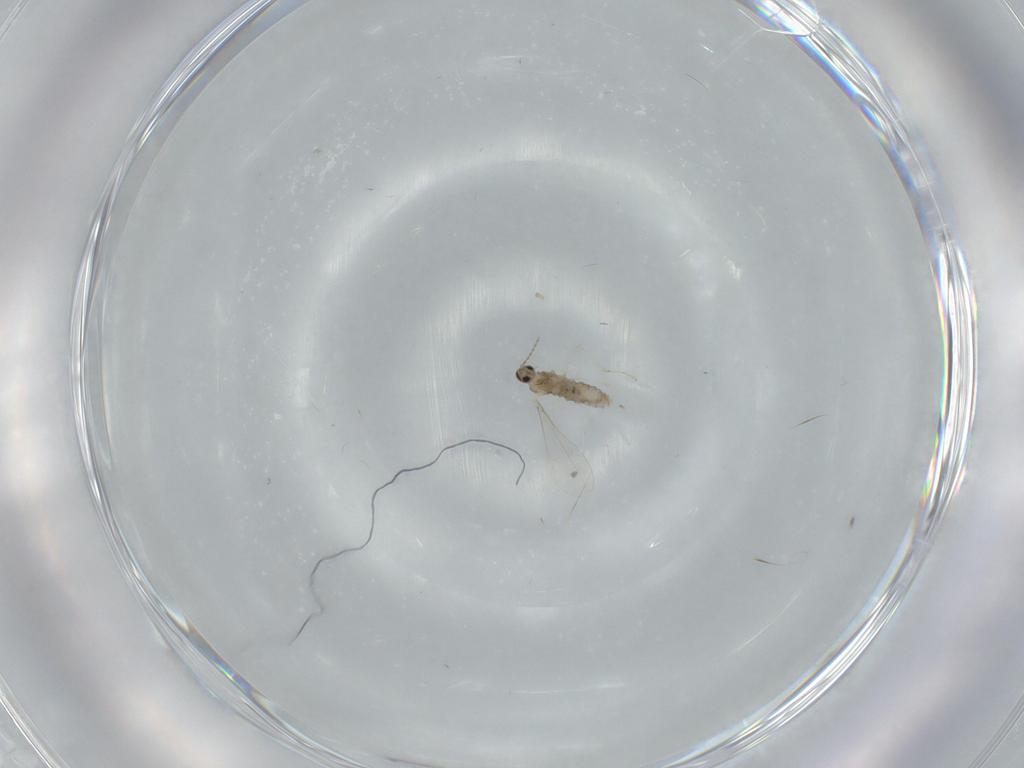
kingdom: Animalia
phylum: Arthropoda
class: Insecta
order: Diptera
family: Cecidomyiidae
